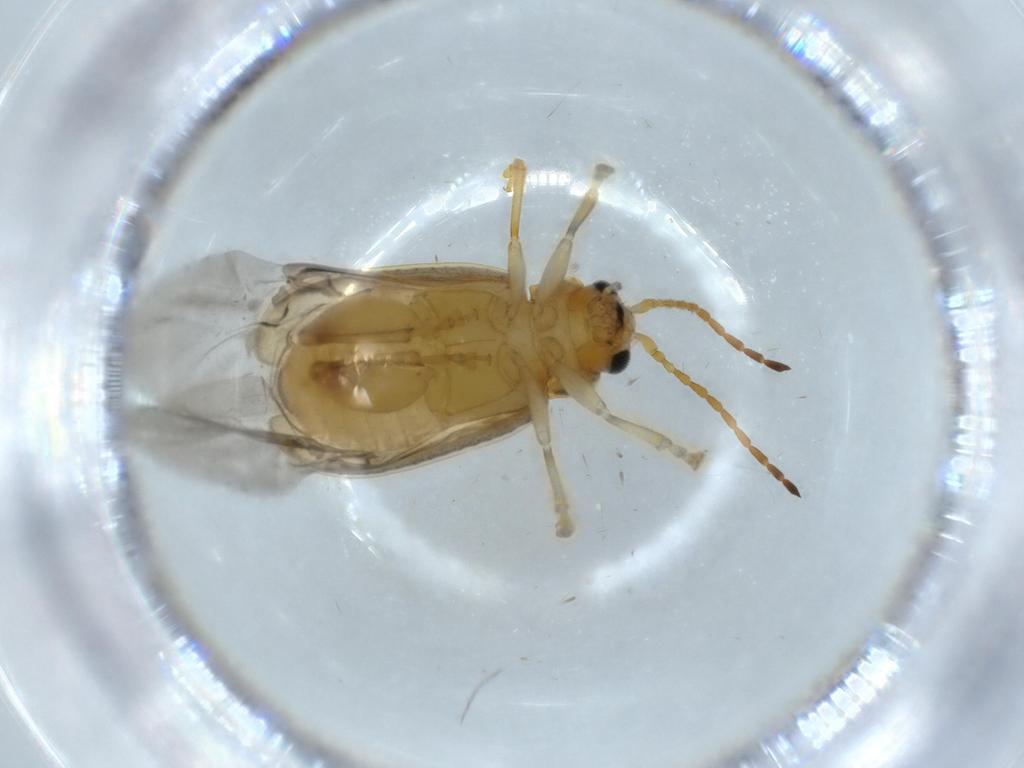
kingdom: Animalia
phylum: Arthropoda
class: Insecta
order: Coleoptera
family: Chrysomelidae
